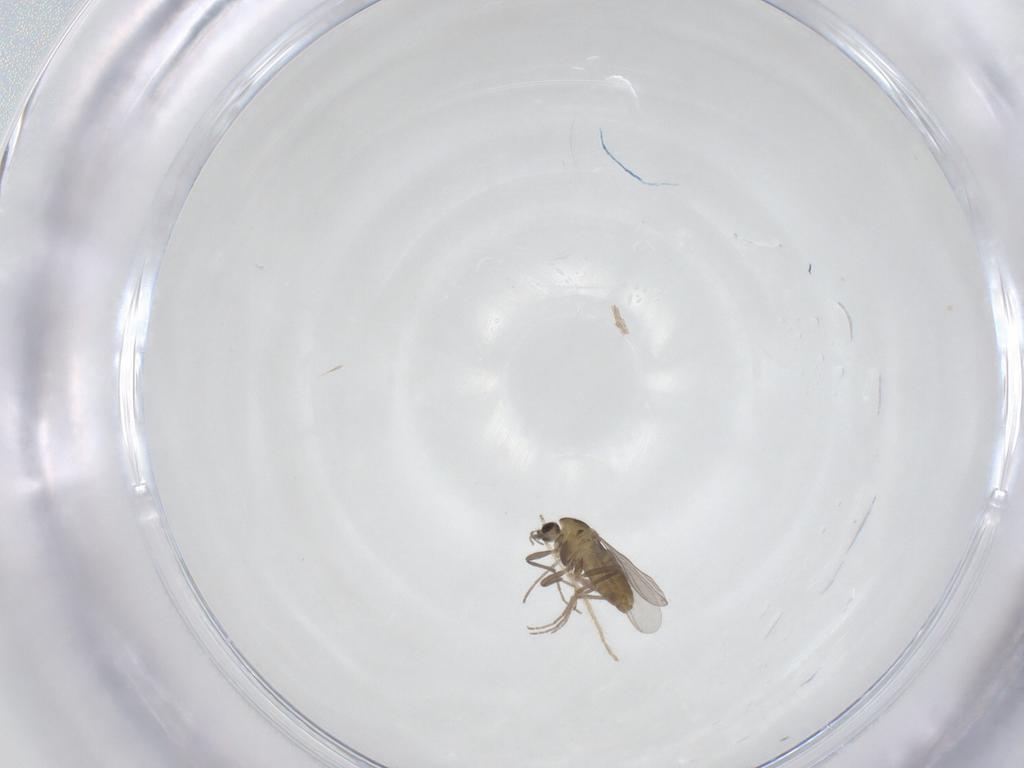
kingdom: Animalia
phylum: Arthropoda
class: Insecta
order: Diptera
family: Chironomidae
